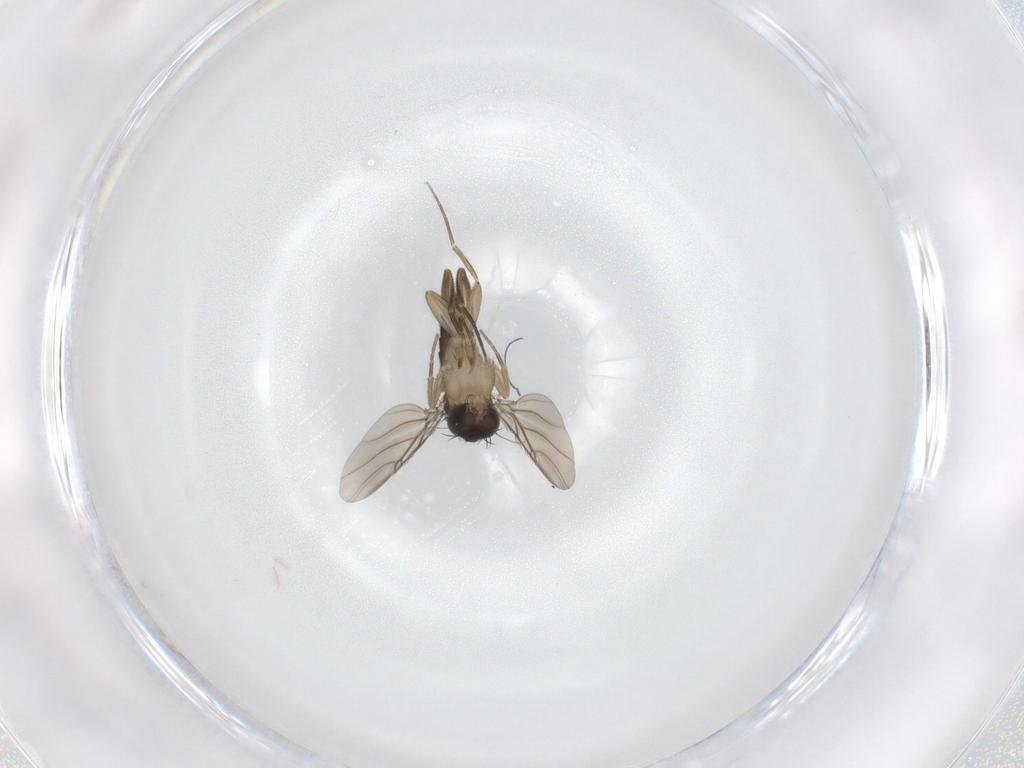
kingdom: Animalia
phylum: Arthropoda
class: Insecta
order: Diptera
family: Phoridae
